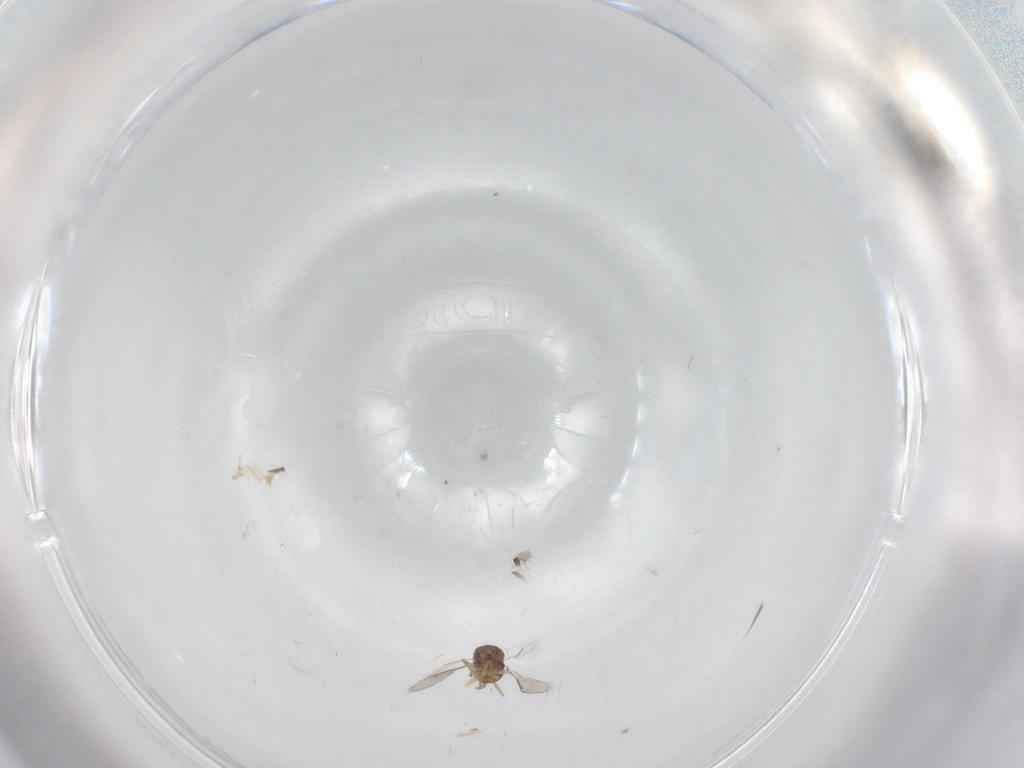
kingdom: Animalia
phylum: Arthropoda
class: Insecta
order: Hymenoptera
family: Aphelinidae
